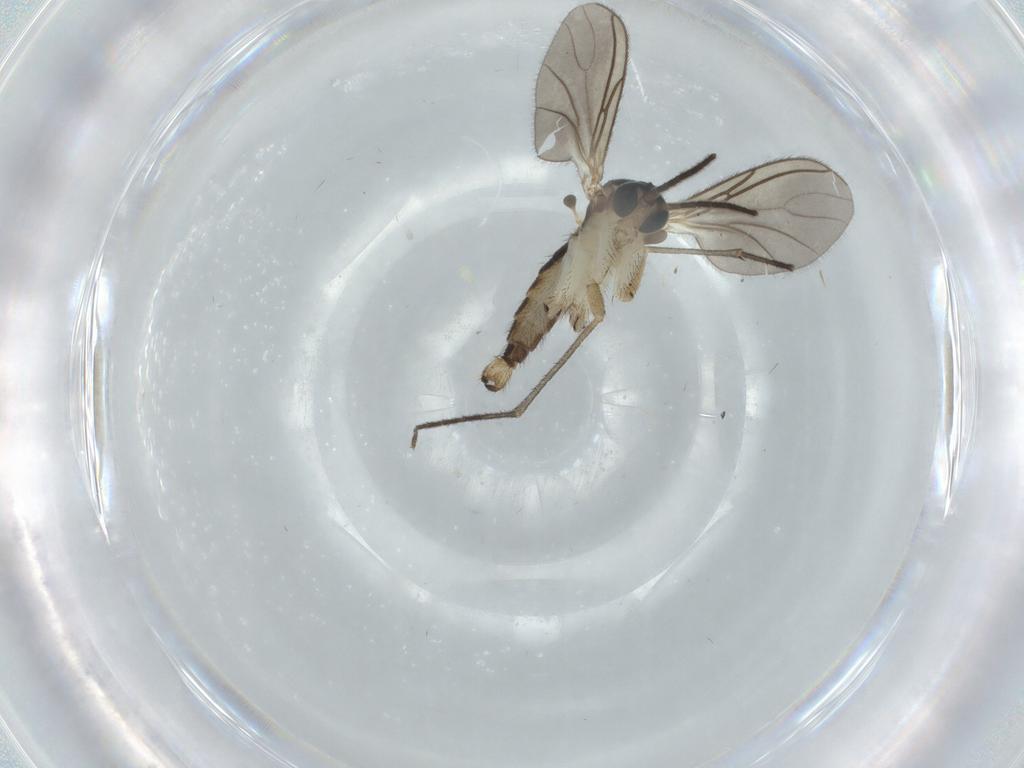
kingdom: Animalia
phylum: Arthropoda
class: Insecta
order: Diptera
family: Sciaridae
